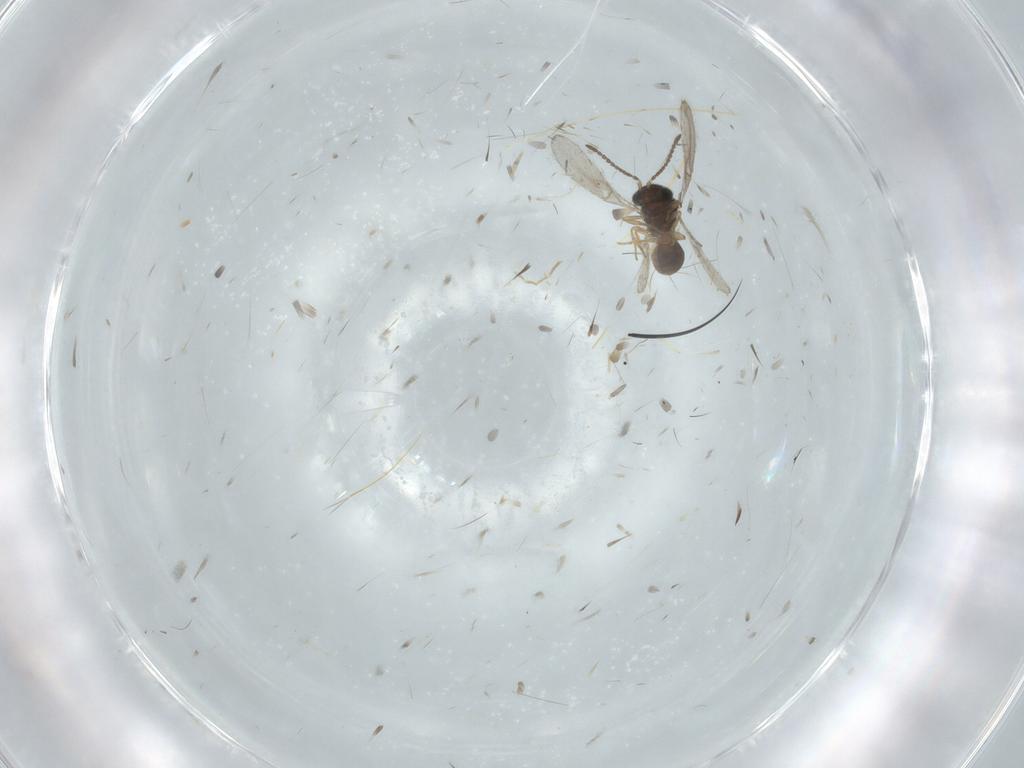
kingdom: Animalia
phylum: Arthropoda
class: Insecta
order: Hymenoptera
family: Formicidae
